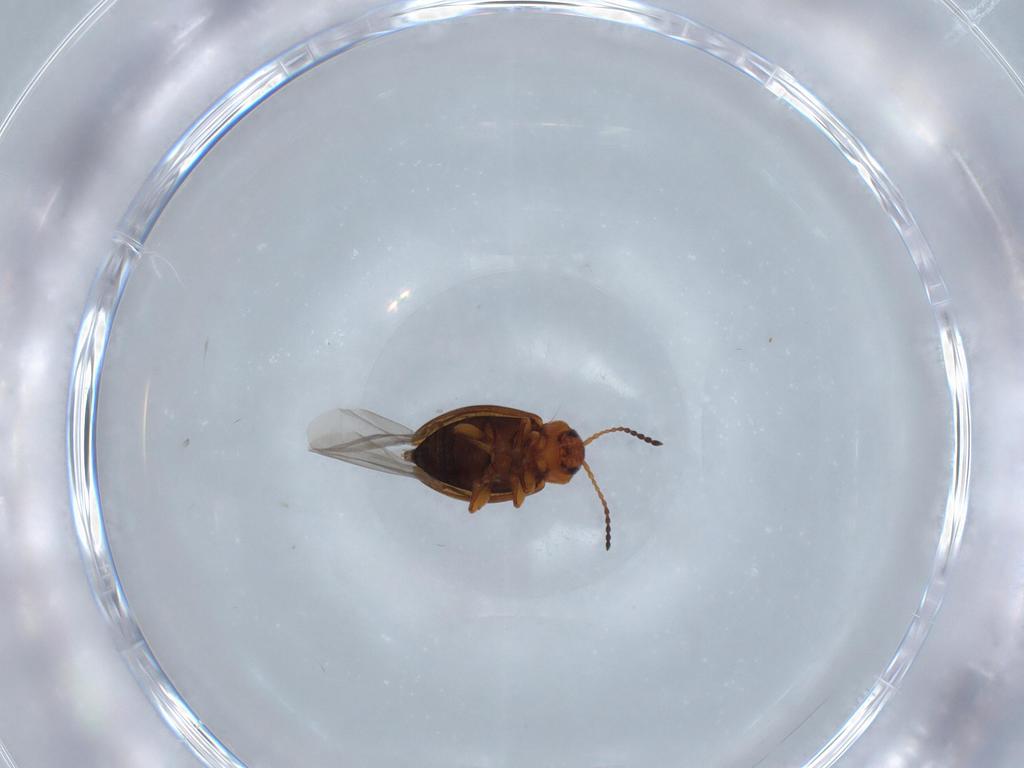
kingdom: Animalia
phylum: Arthropoda
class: Insecta
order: Coleoptera
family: Chrysomelidae
